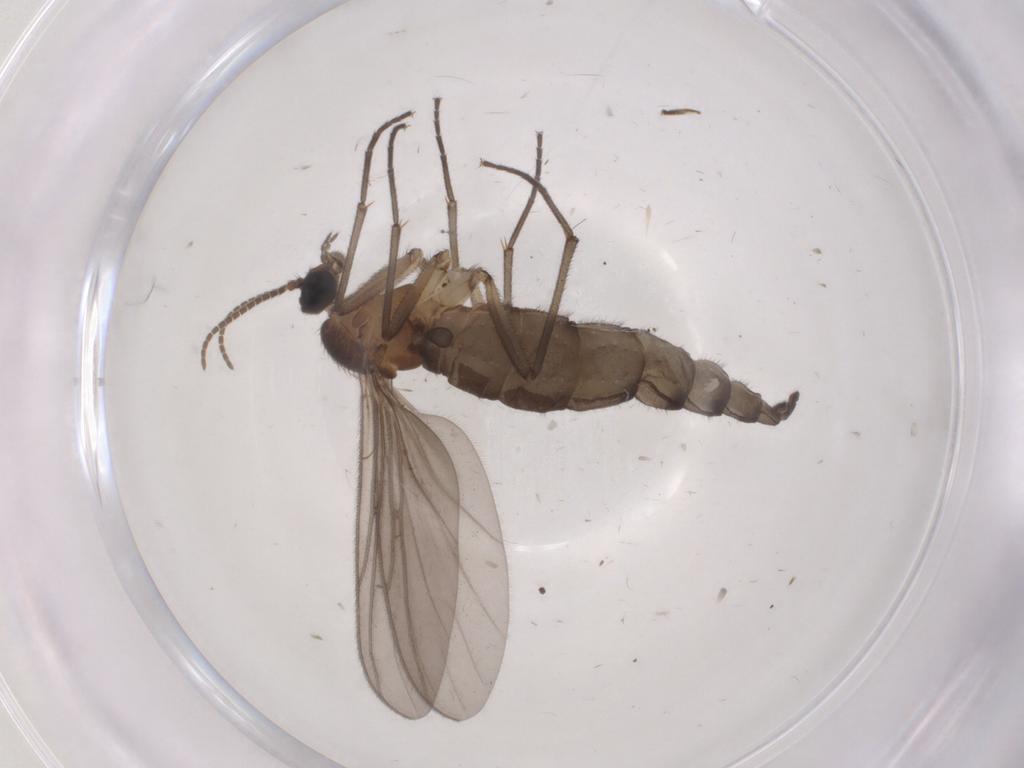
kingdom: Animalia
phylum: Arthropoda
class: Insecta
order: Diptera
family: Cecidomyiidae
